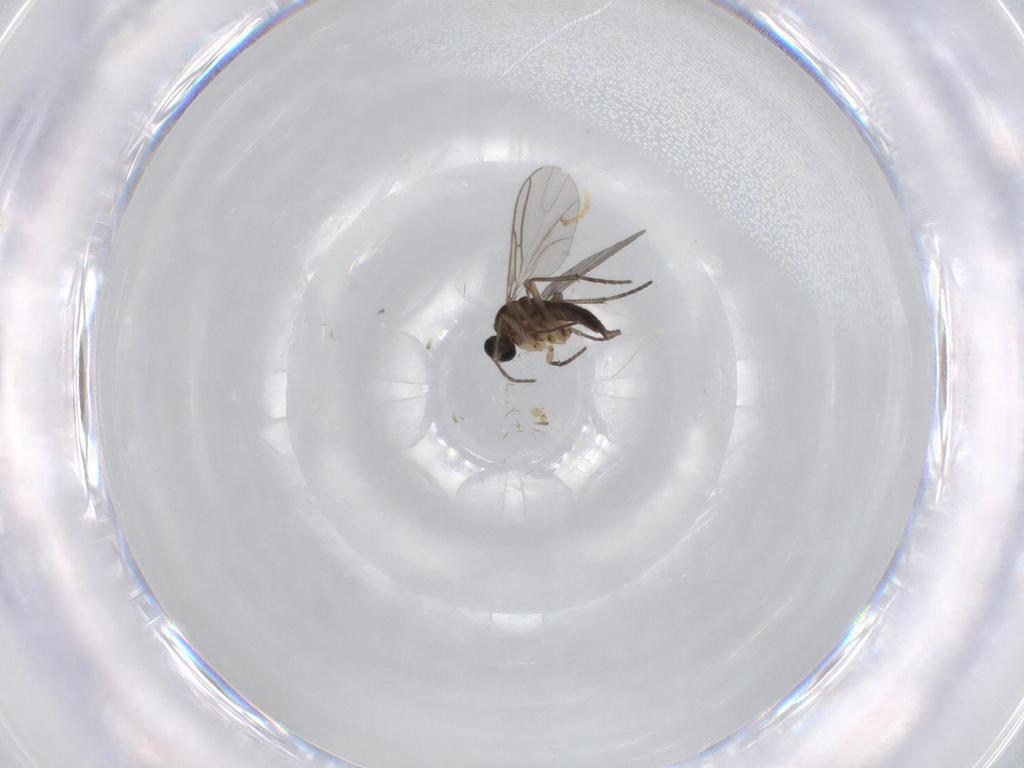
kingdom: Animalia
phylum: Arthropoda
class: Insecta
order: Diptera
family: Sciaridae
